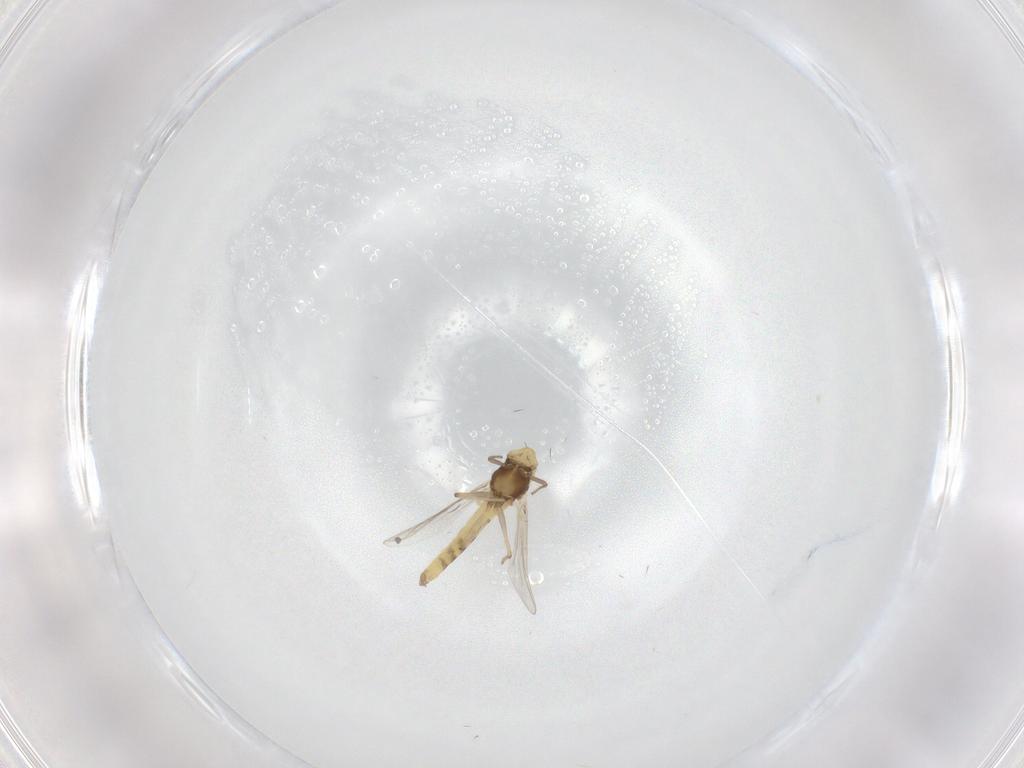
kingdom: Animalia
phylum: Arthropoda
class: Insecta
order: Diptera
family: Chironomidae
